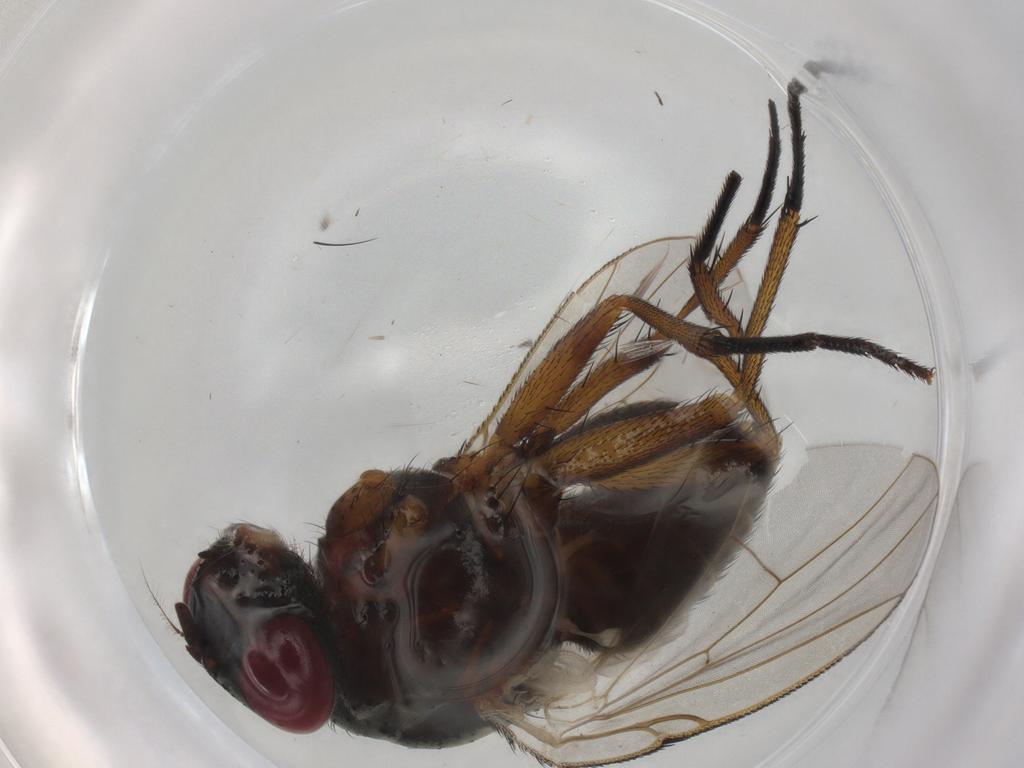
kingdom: Animalia
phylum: Arthropoda
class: Insecta
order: Diptera
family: Muscidae
